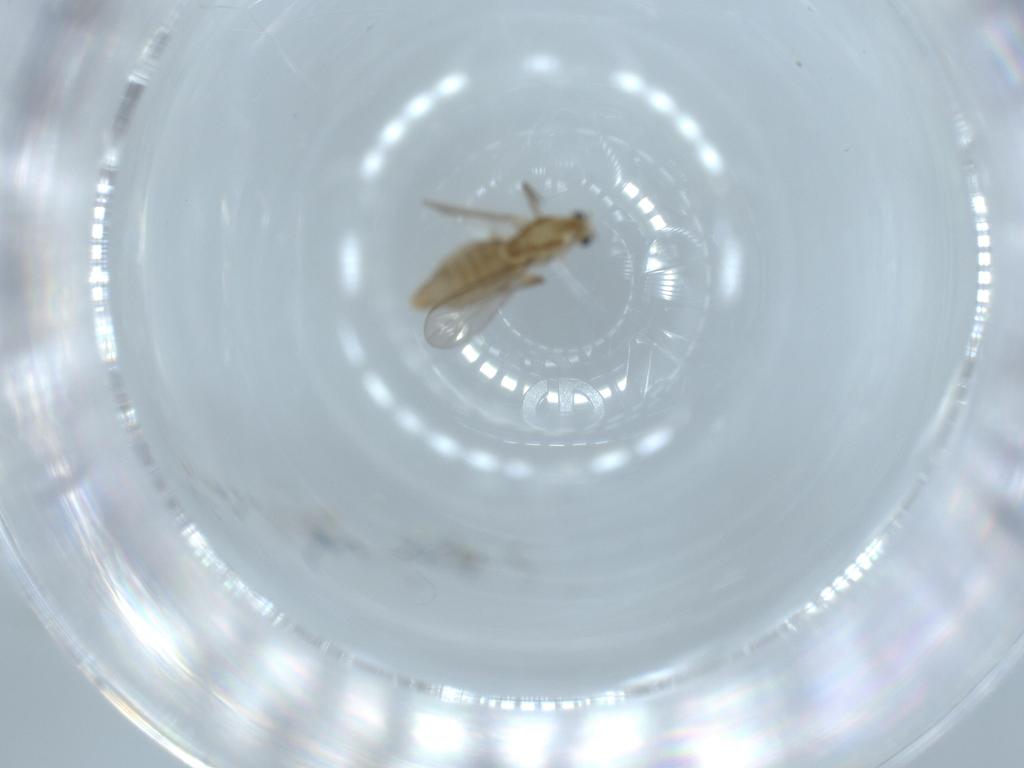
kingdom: Animalia
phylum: Arthropoda
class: Insecta
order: Diptera
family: Chironomidae
